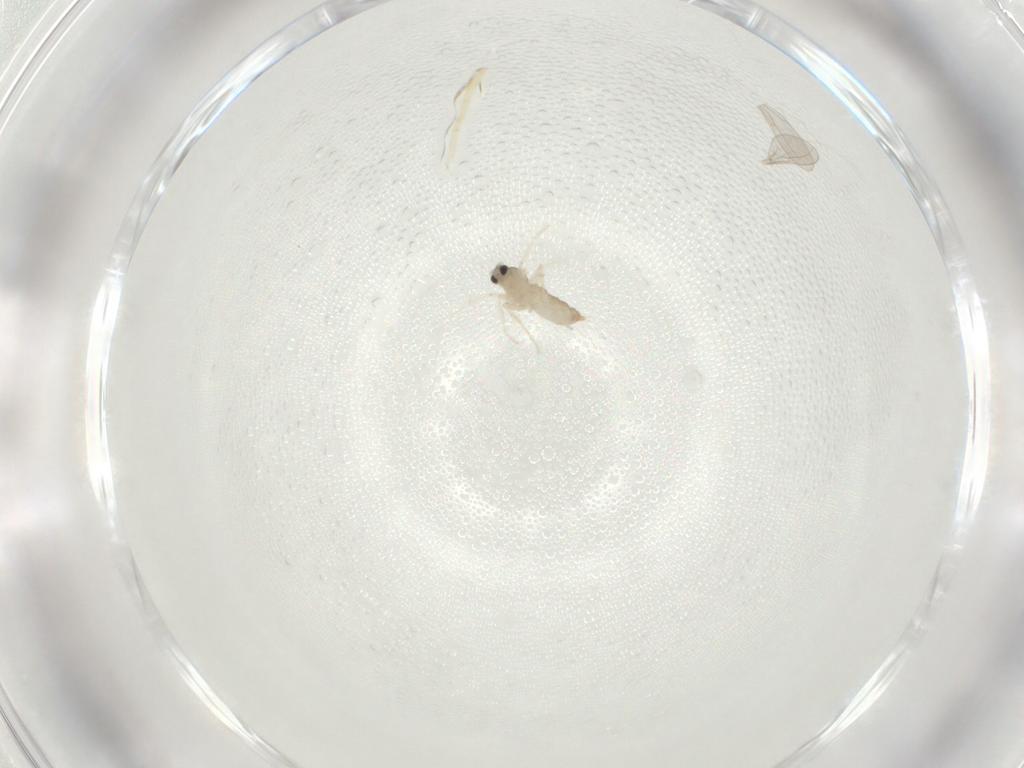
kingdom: Animalia
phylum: Arthropoda
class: Insecta
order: Diptera
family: Cecidomyiidae
